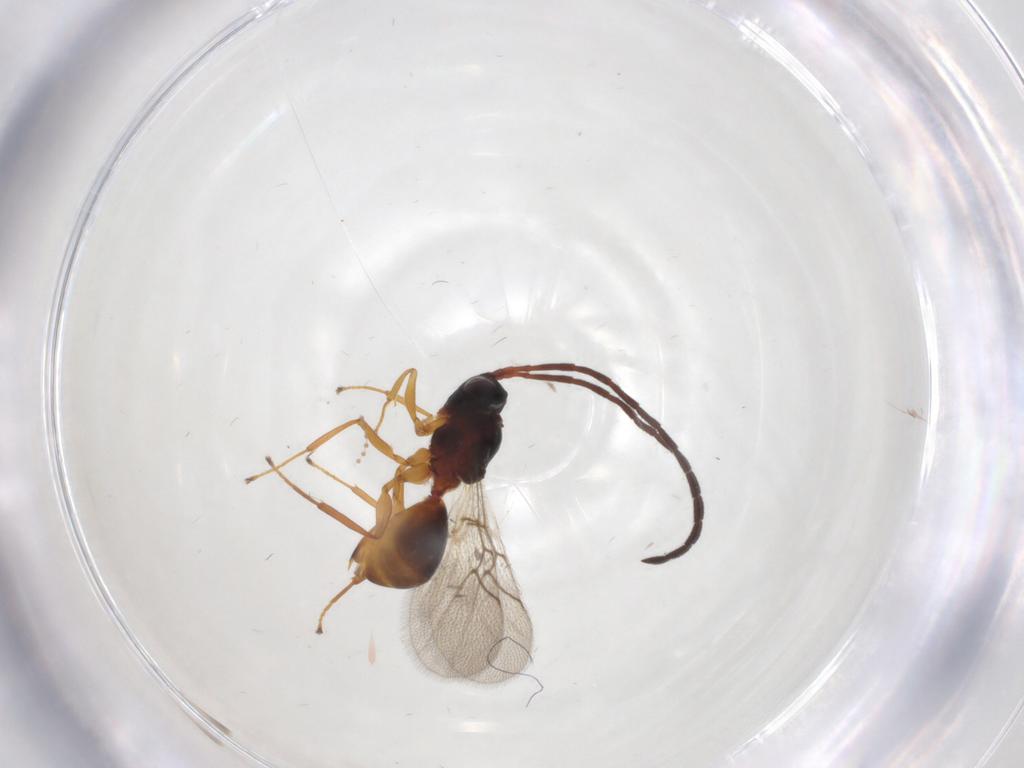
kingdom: Animalia
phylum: Arthropoda
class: Insecta
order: Hymenoptera
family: Figitidae
